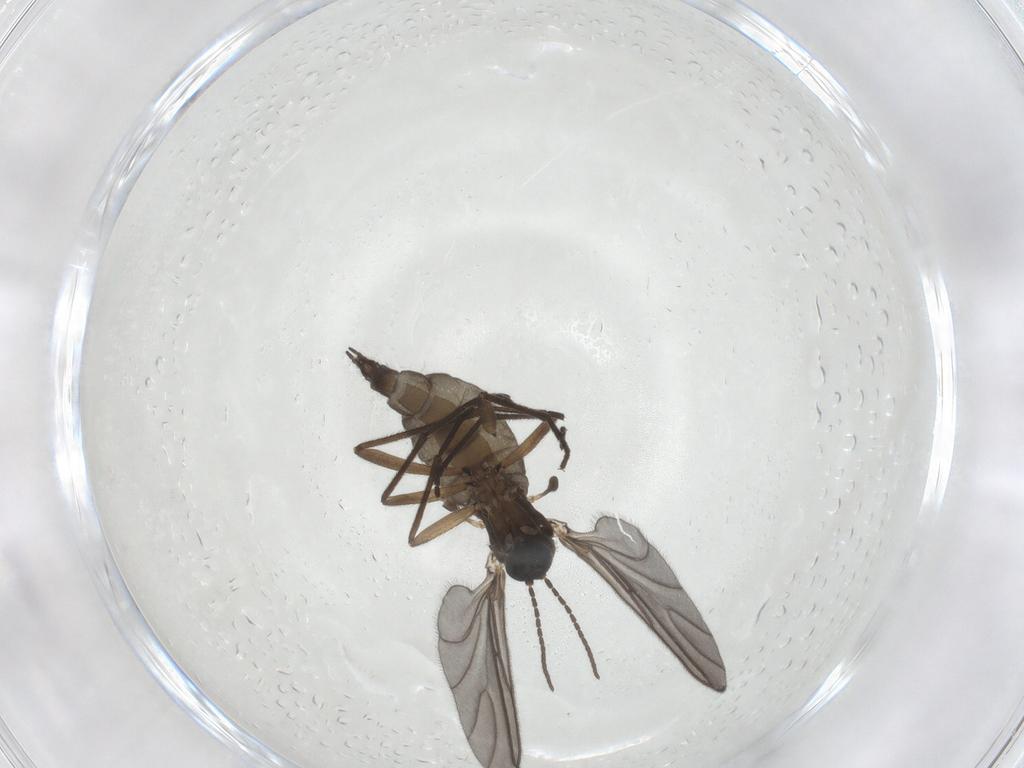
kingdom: Animalia
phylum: Arthropoda
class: Insecta
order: Diptera
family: Sciaridae
